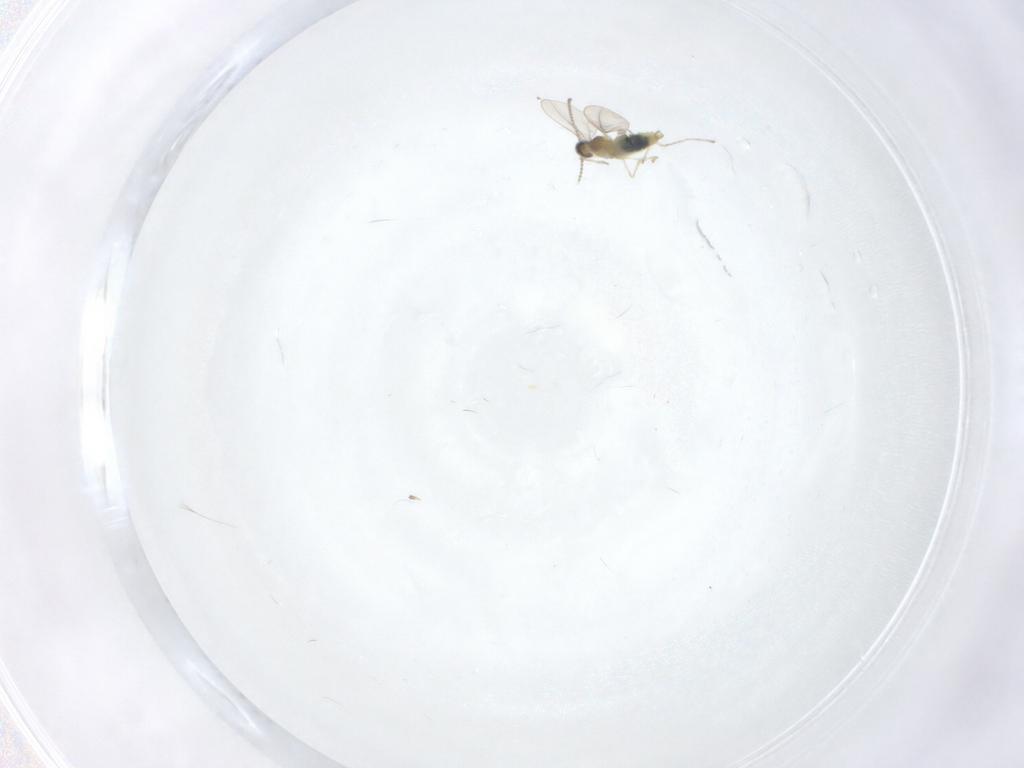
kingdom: Animalia
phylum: Arthropoda
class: Insecta
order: Diptera
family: Cecidomyiidae
